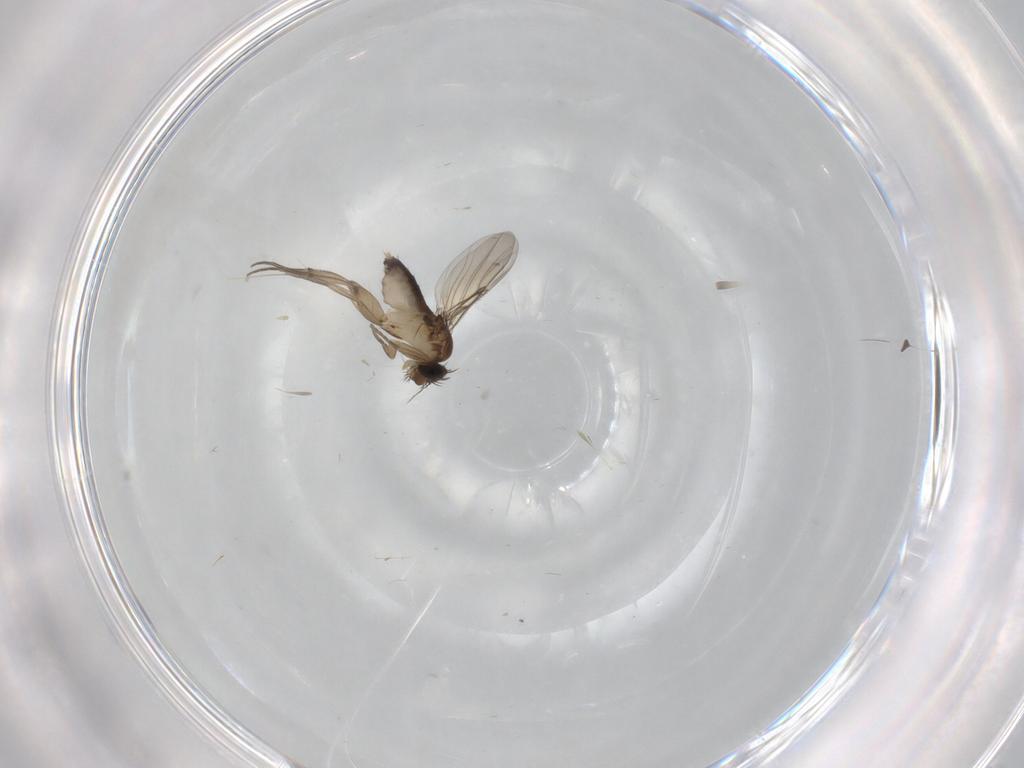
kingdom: Animalia
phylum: Arthropoda
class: Insecta
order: Diptera
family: Phoridae
